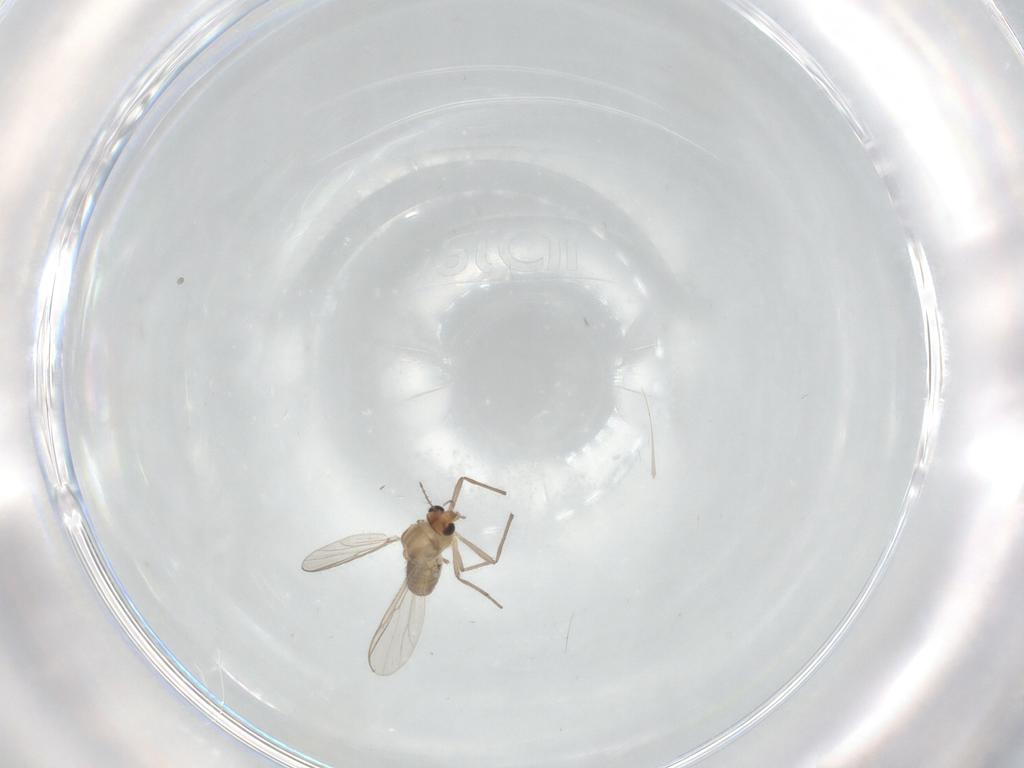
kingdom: Animalia
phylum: Arthropoda
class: Insecta
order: Diptera
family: Chironomidae
